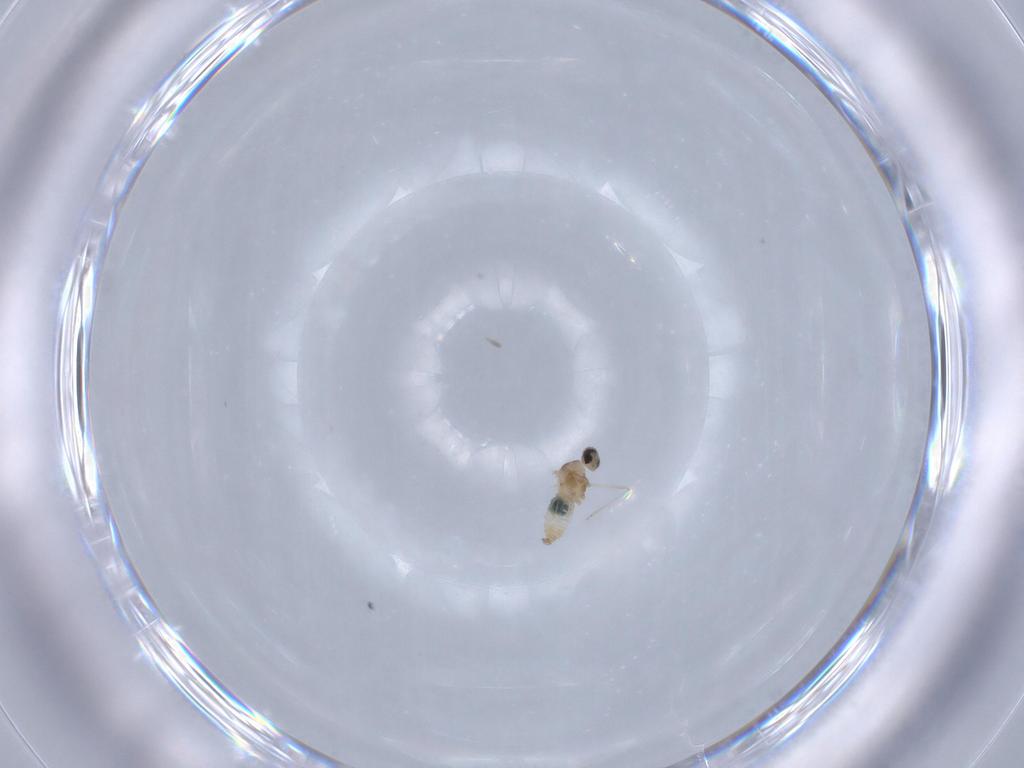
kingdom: Animalia
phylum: Arthropoda
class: Insecta
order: Diptera
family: Cecidomyiidae
